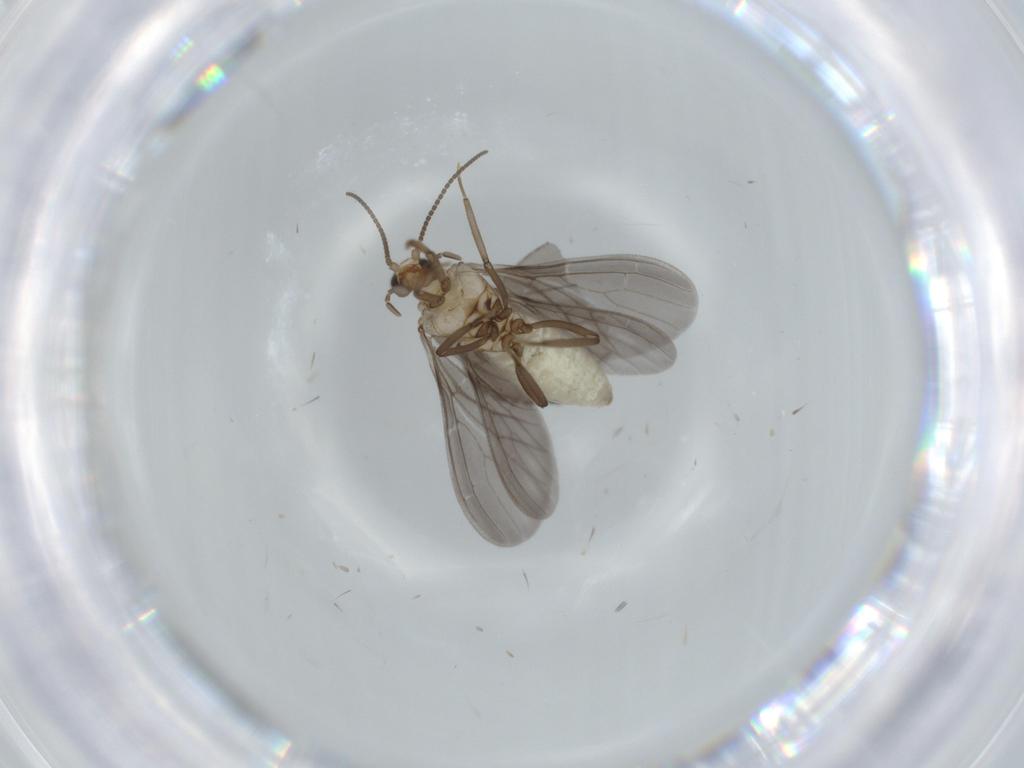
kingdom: Animalia
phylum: Arthropoda
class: Insecta
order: Neuroptera
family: Coniopterygidae
